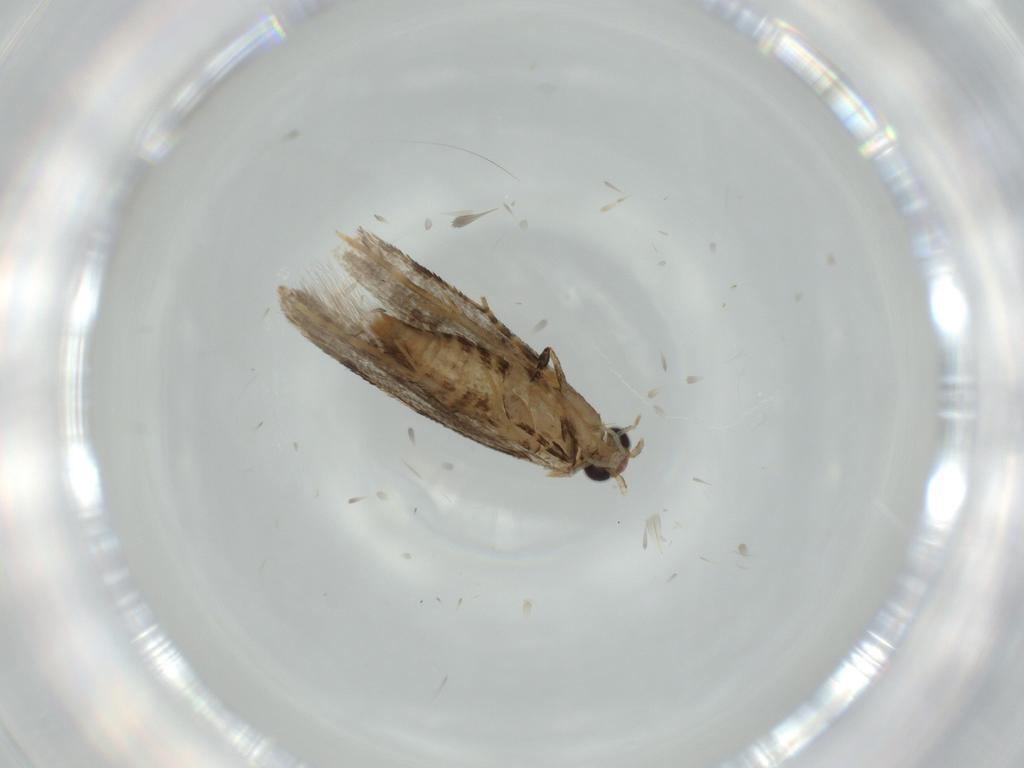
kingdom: Animalia
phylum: Arthropoda
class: Insecta
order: Lepidoptera
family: Tineidae
